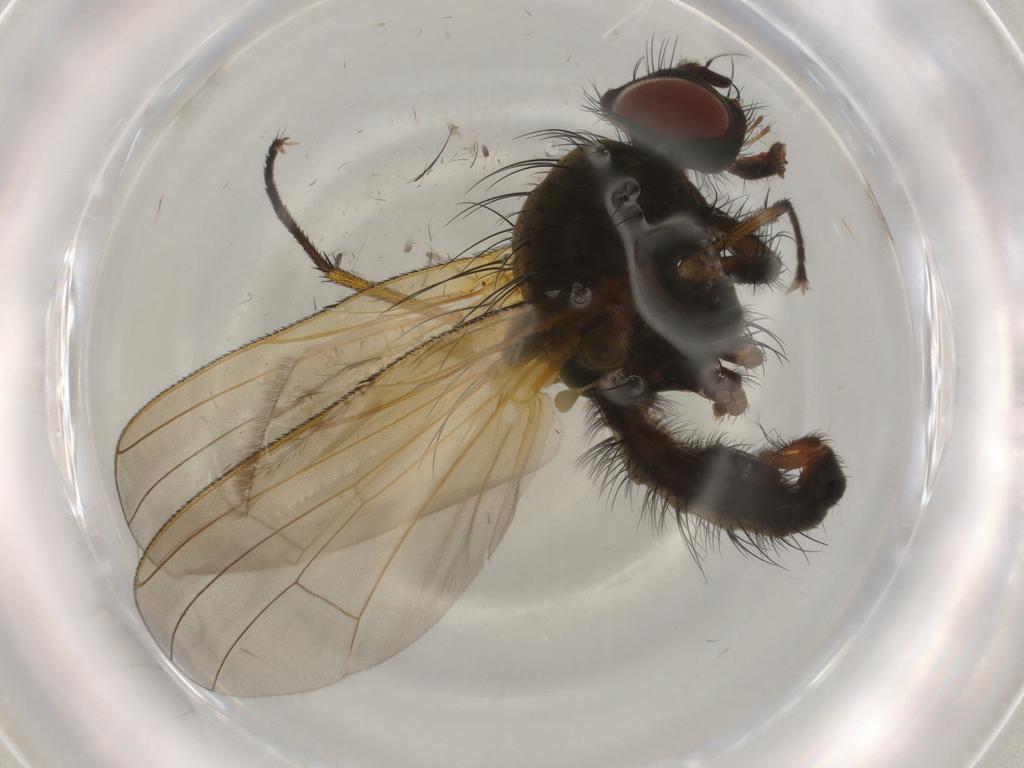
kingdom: Animalia
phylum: Arthropoda
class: Insecta
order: Diptera
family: Anthomyiidae
